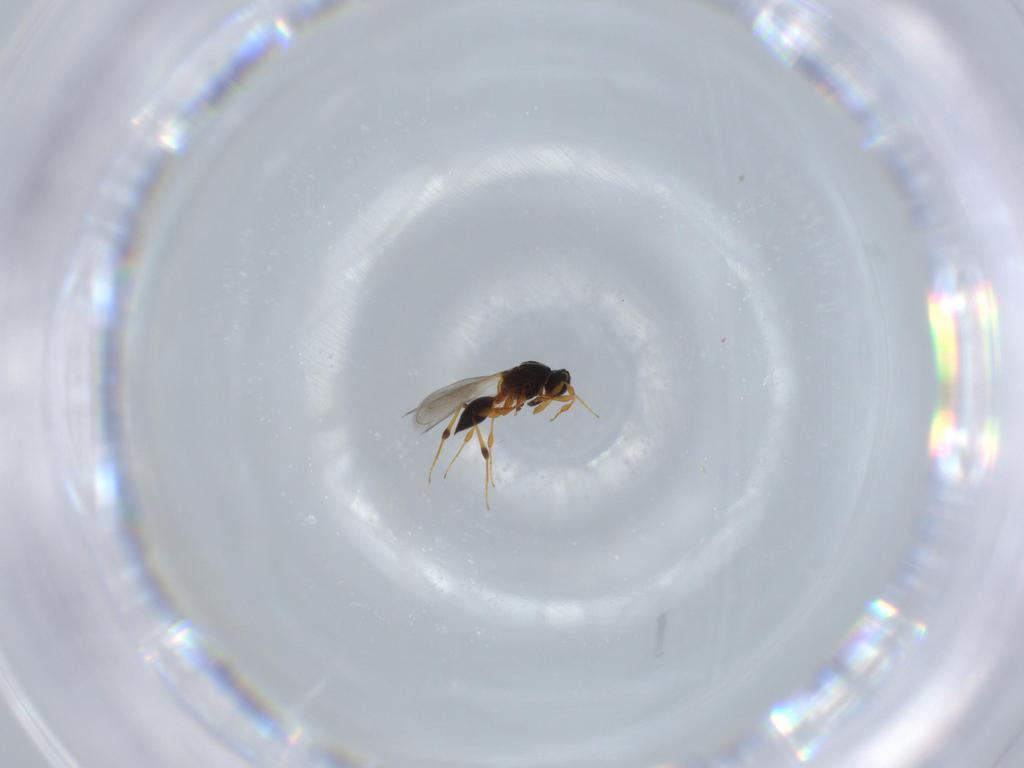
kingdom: Animalia
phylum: Arthropoda
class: Insecta
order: Hymenoptera
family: Platygastridae
